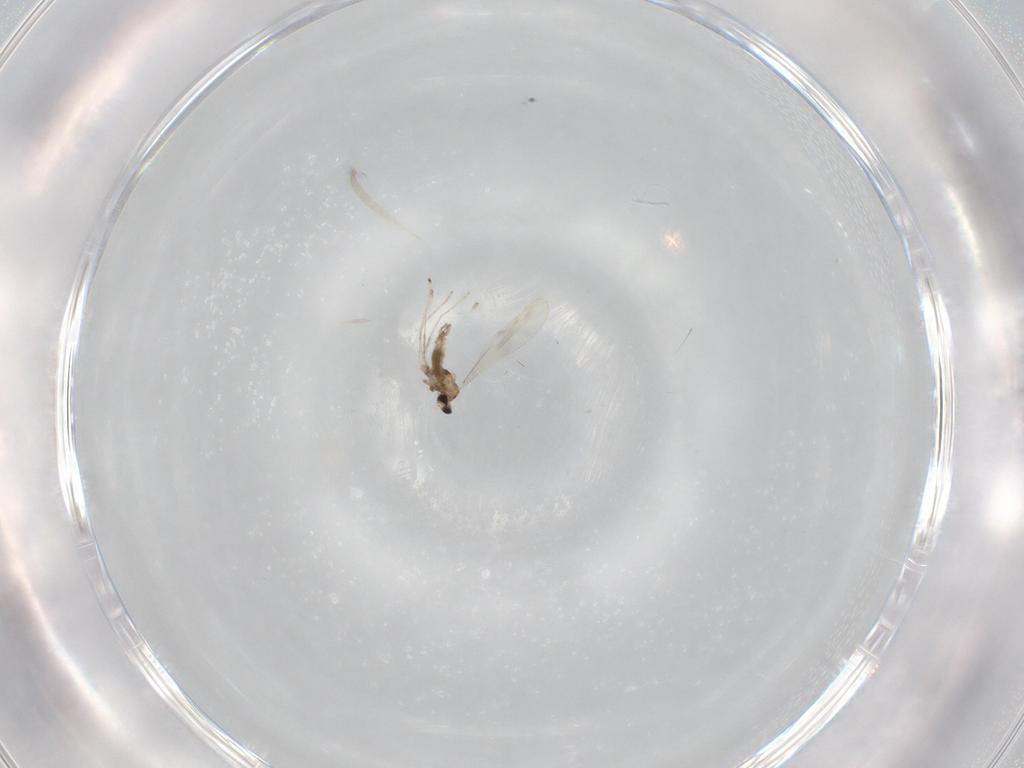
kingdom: Animalia
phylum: Arthropoda
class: Insecta
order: Diptera
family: Cecidomyiidae
